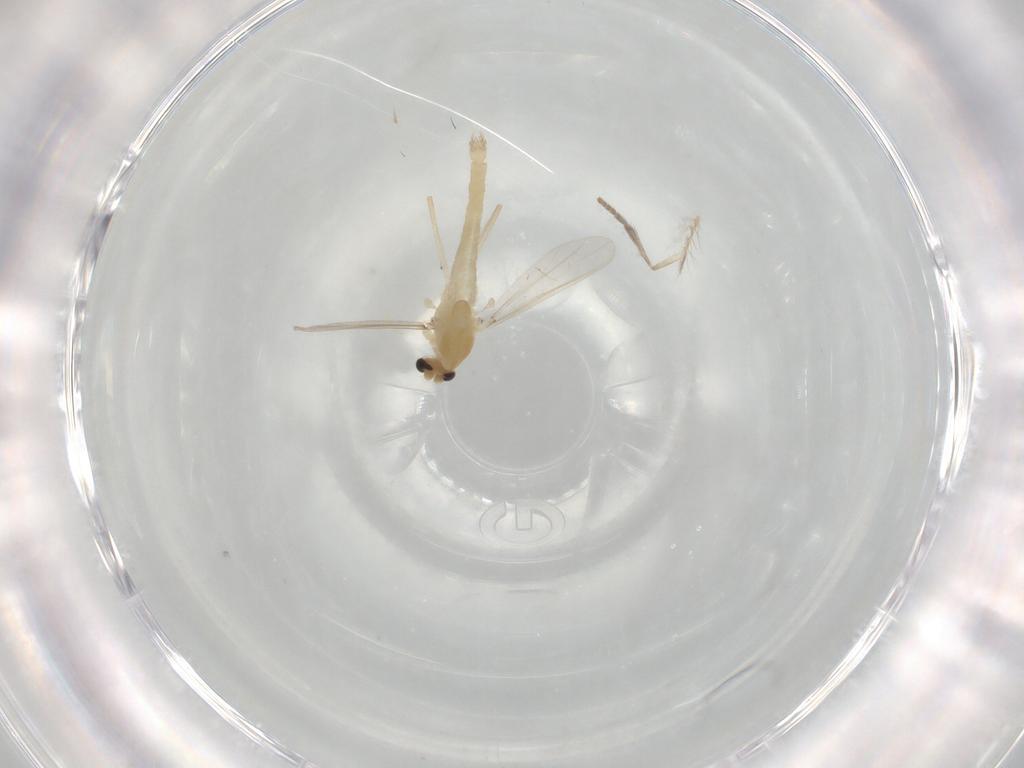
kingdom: Animalia
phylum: Arthropoda
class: Insecta
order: Diptera
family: Chironomidae
